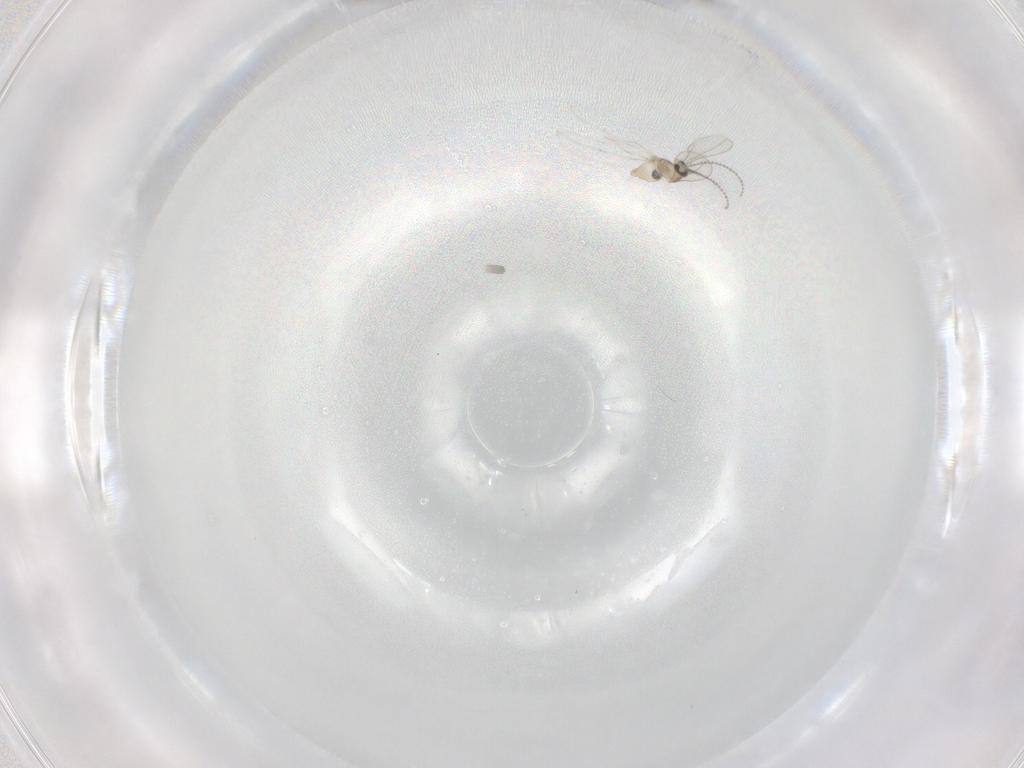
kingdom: Animalia
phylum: Arthropoda
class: Insecta
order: Diptera
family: Cecidomyiidae
